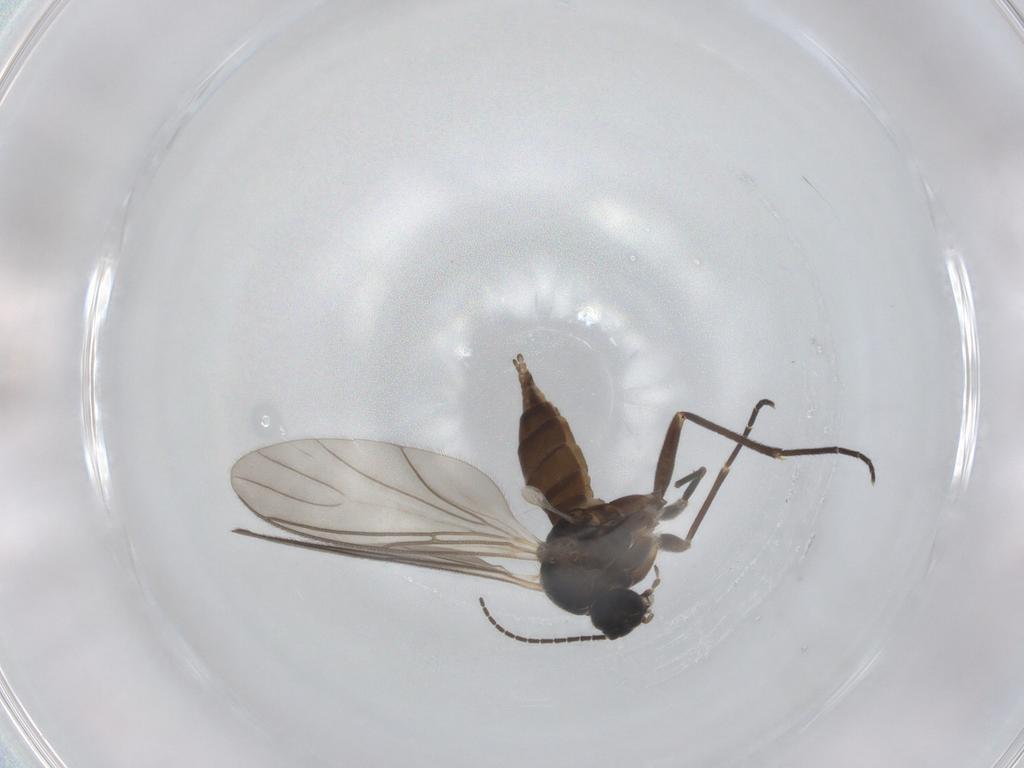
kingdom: Animalia
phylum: Arthropoda
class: Insecta
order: Diptera
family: Sciaridae
